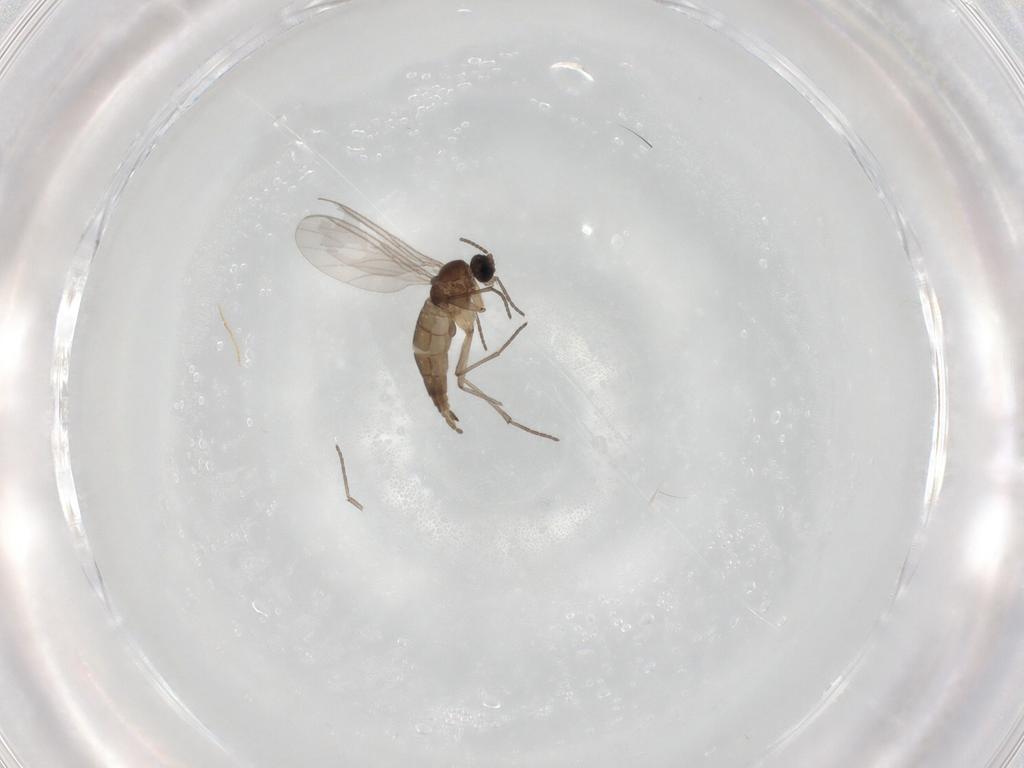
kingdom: Animalia
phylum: Arthropoda
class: Insecta
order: Diptera
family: Sciaridae
